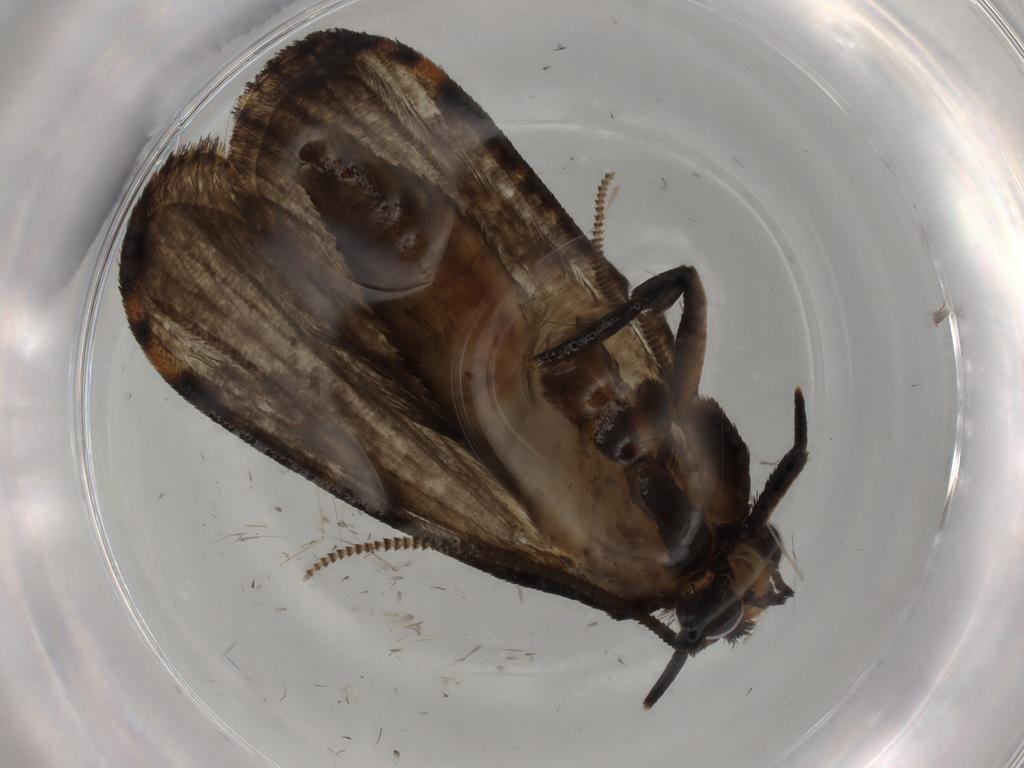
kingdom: Animalia
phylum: Arthropoda
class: Insecta
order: Lepidoptera
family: Tineidae
